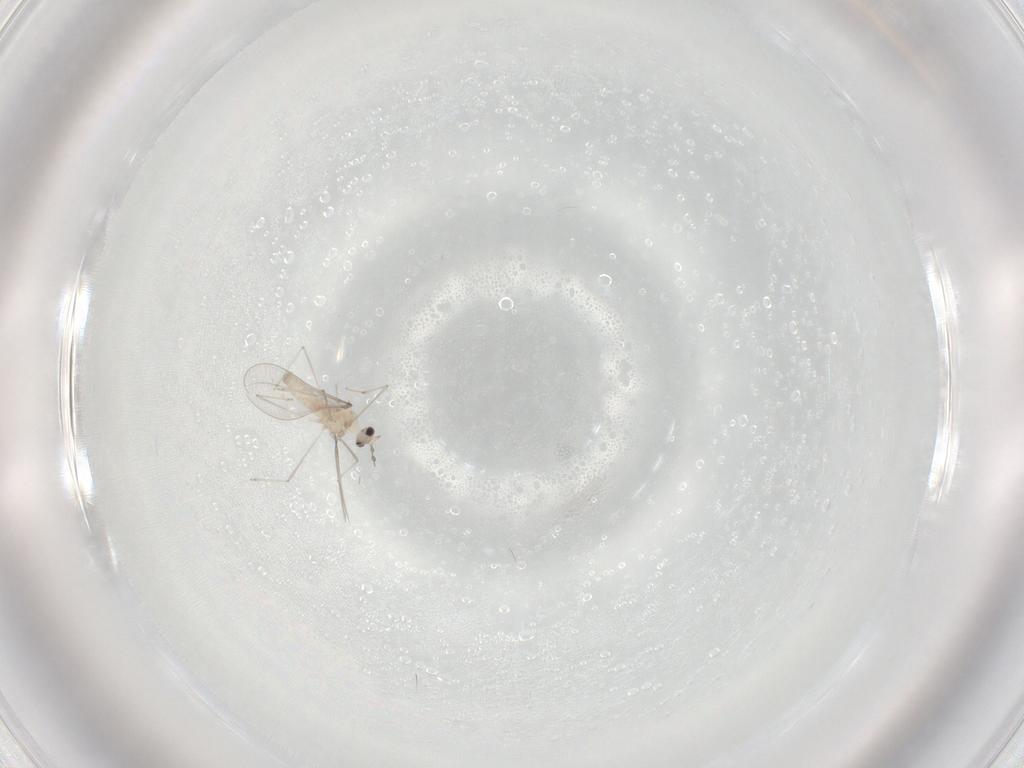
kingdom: Animalia
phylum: Arthropoda
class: Insecta
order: Diptera
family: Cecidomyiidae
